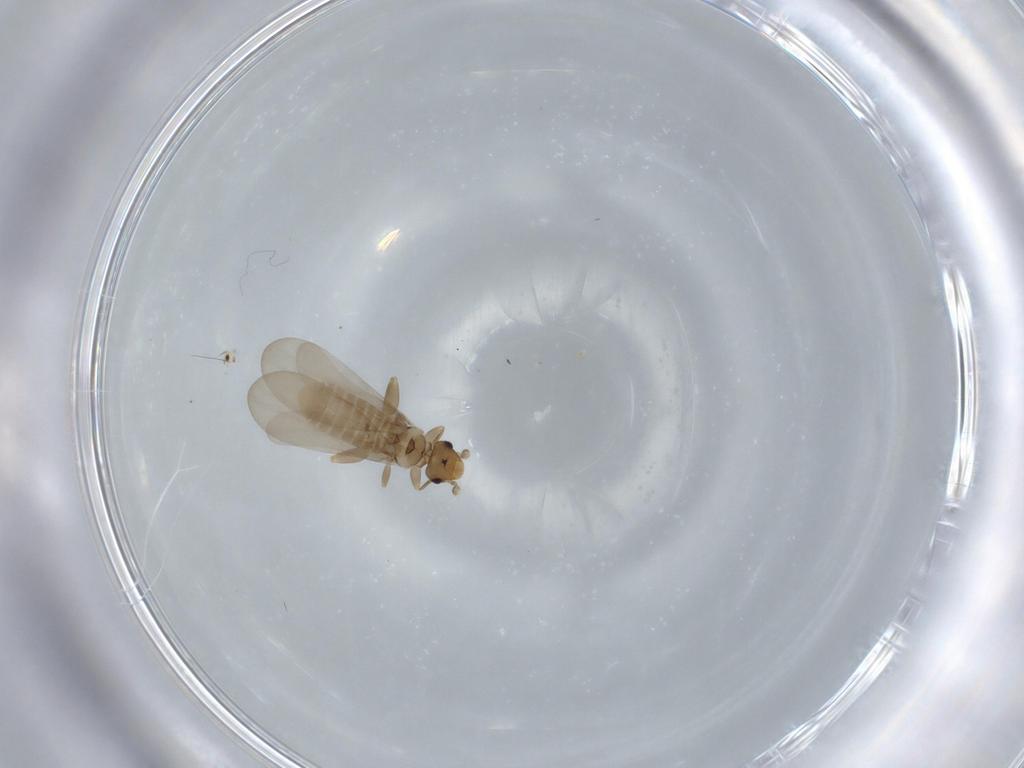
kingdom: Animalia
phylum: Arthropoda
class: Insecta
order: Psocodea
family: Liposcelididae
